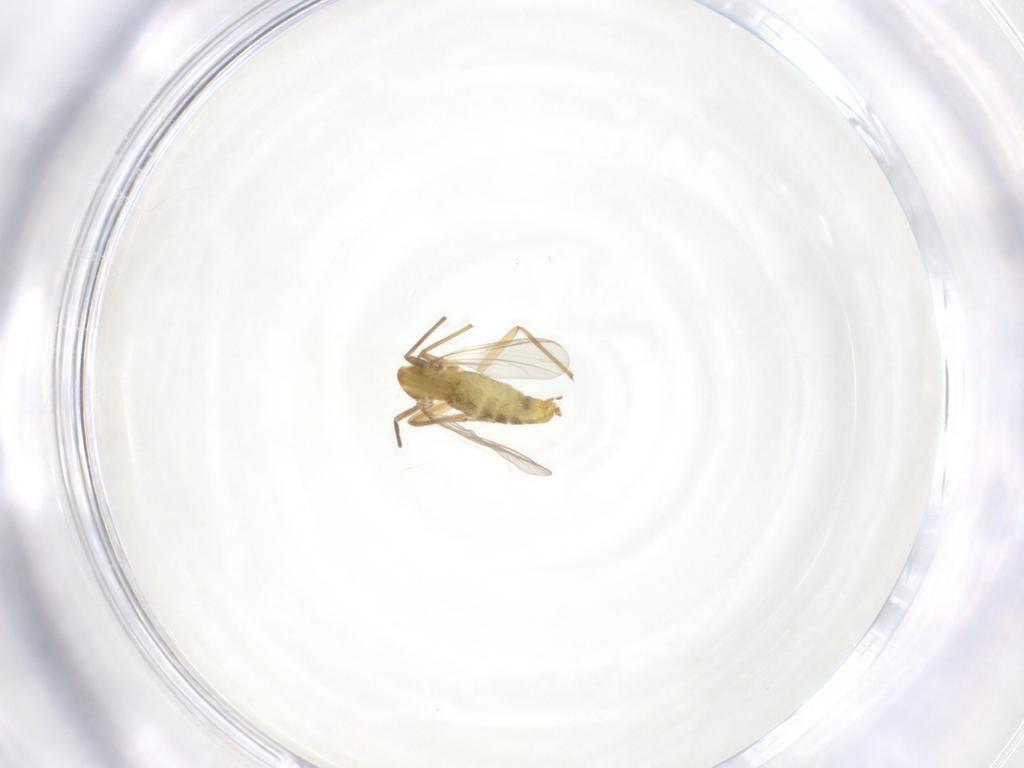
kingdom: Animalia
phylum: Arthropoda
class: Insecta
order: Diptera
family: Chironomidae
